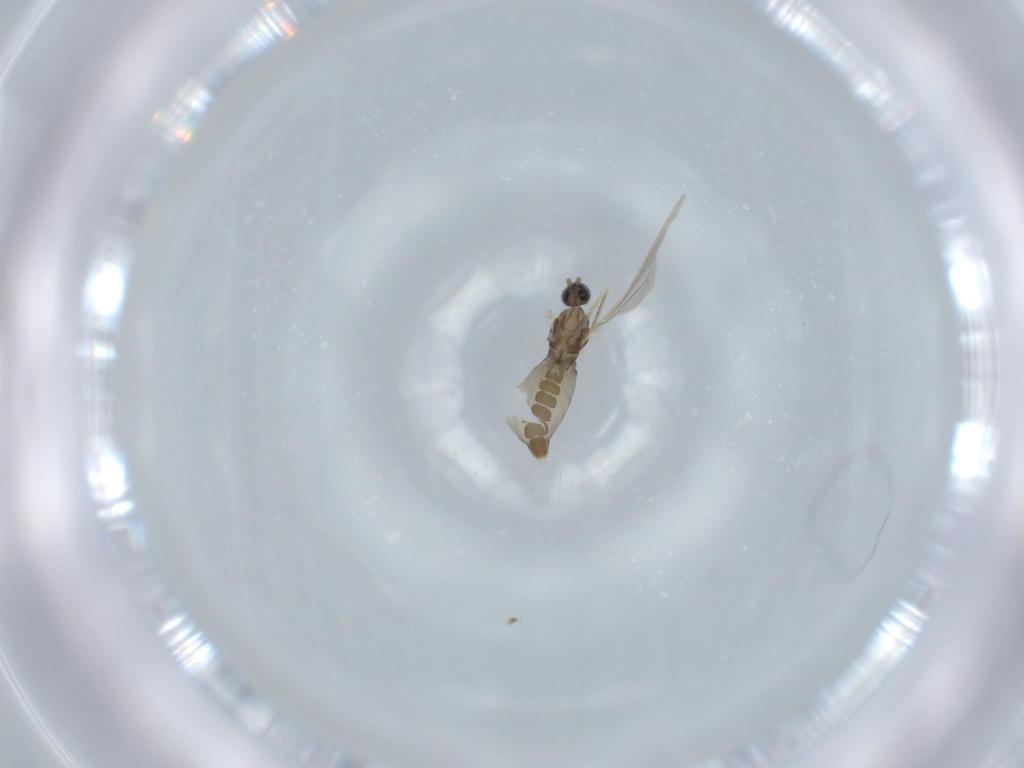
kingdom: Animalia
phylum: Arthropoda
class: Insecta
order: Diptera
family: Cecidomyiidae
